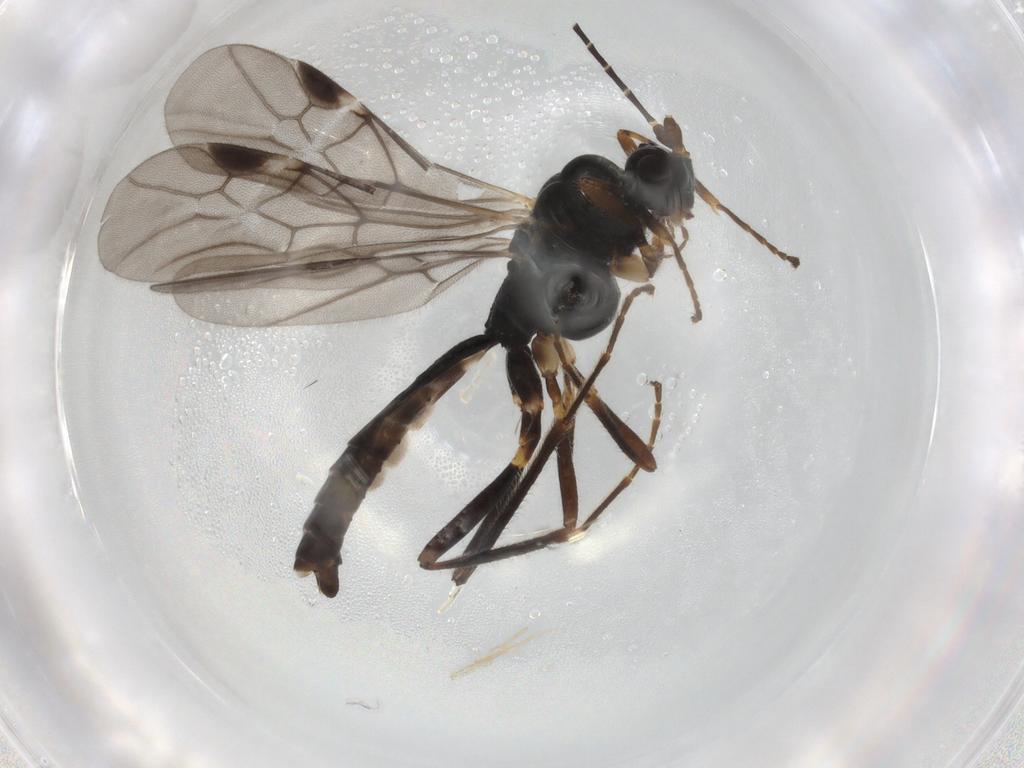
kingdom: Animalia
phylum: Arthropoda
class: Insecta
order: Hymenoptera
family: Braconidae
